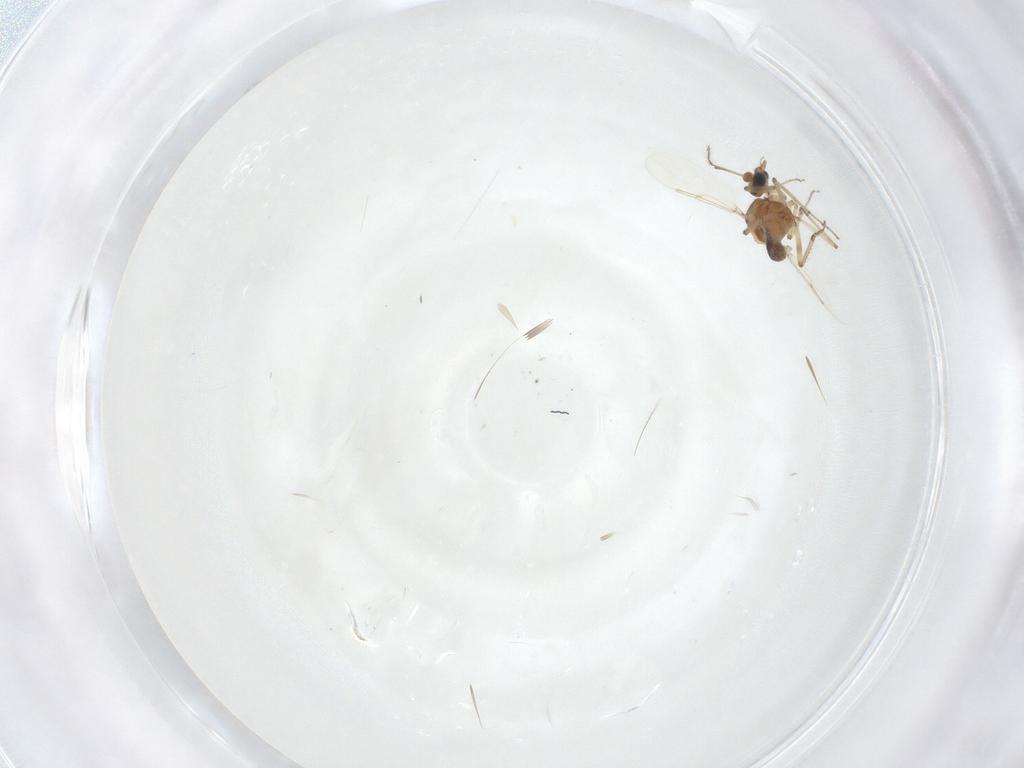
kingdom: Animalia
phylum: Arthropoda
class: Insecta
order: Diptera
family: Ceratopogonidae
